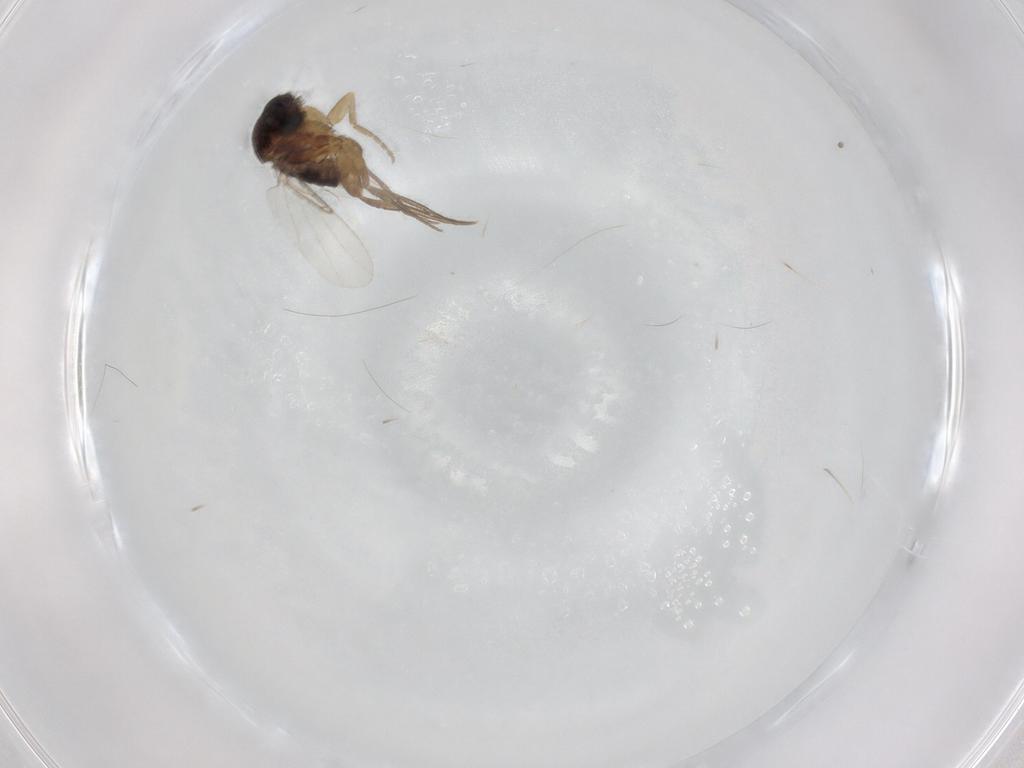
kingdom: Animalia
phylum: Arthropoda
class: Insecta
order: Diptera
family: Phoridae
